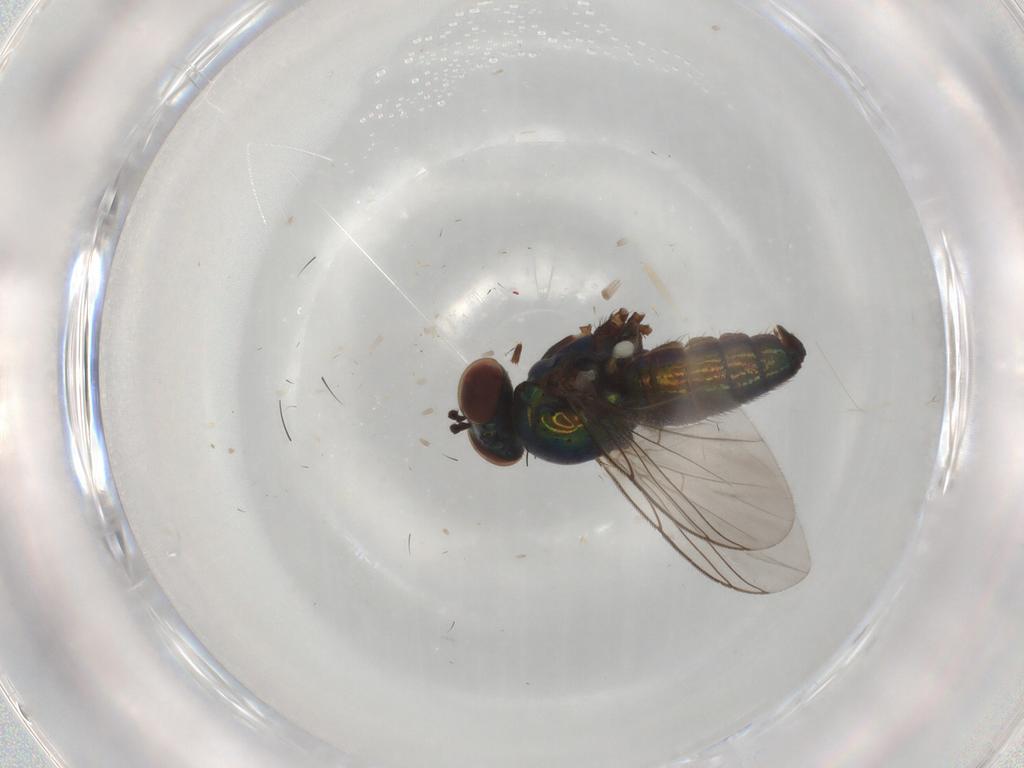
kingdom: Animalia
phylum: Arthropoda
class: Insecta
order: Diptera
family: Dolichopodidae
